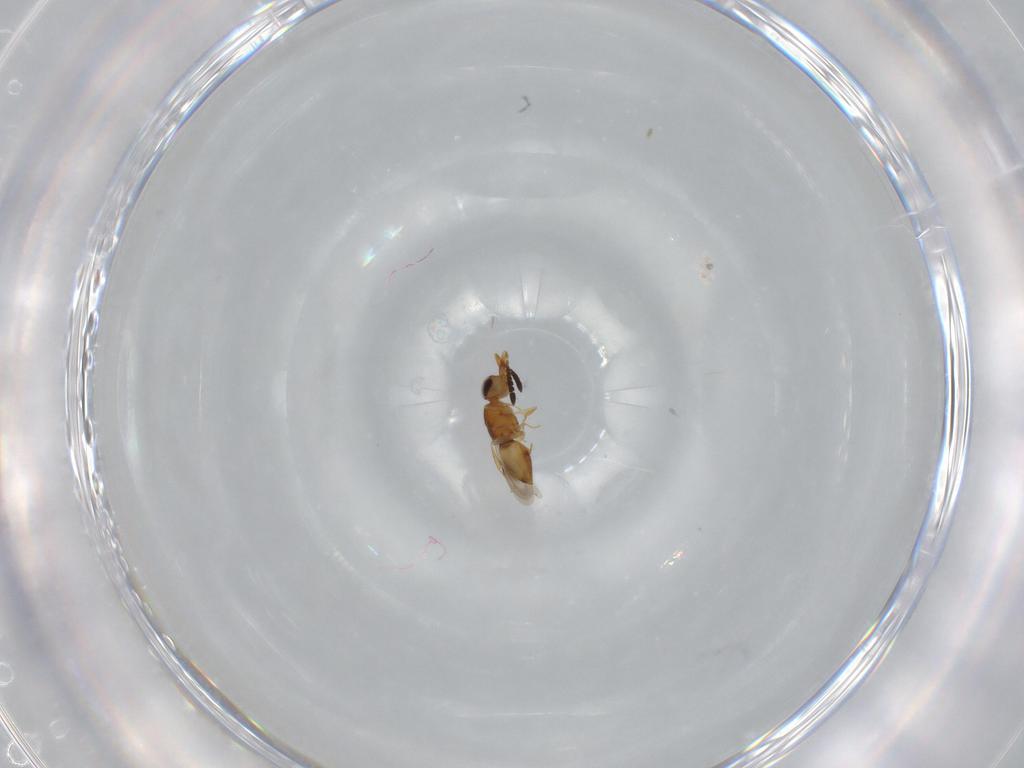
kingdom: Animalia
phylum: Arthropoda
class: Insecta
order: Hymenoptera
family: Ceraphronidae
